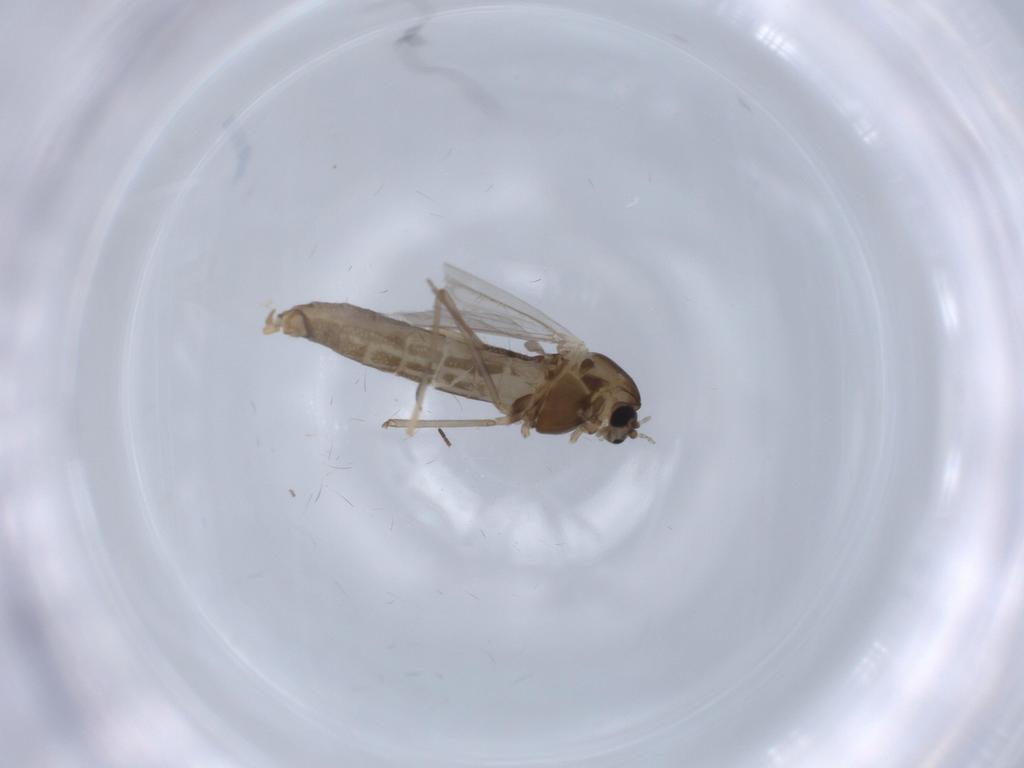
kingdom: Animalia
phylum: Arthropoda
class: Insecta
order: Diptera
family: Chironomidae
